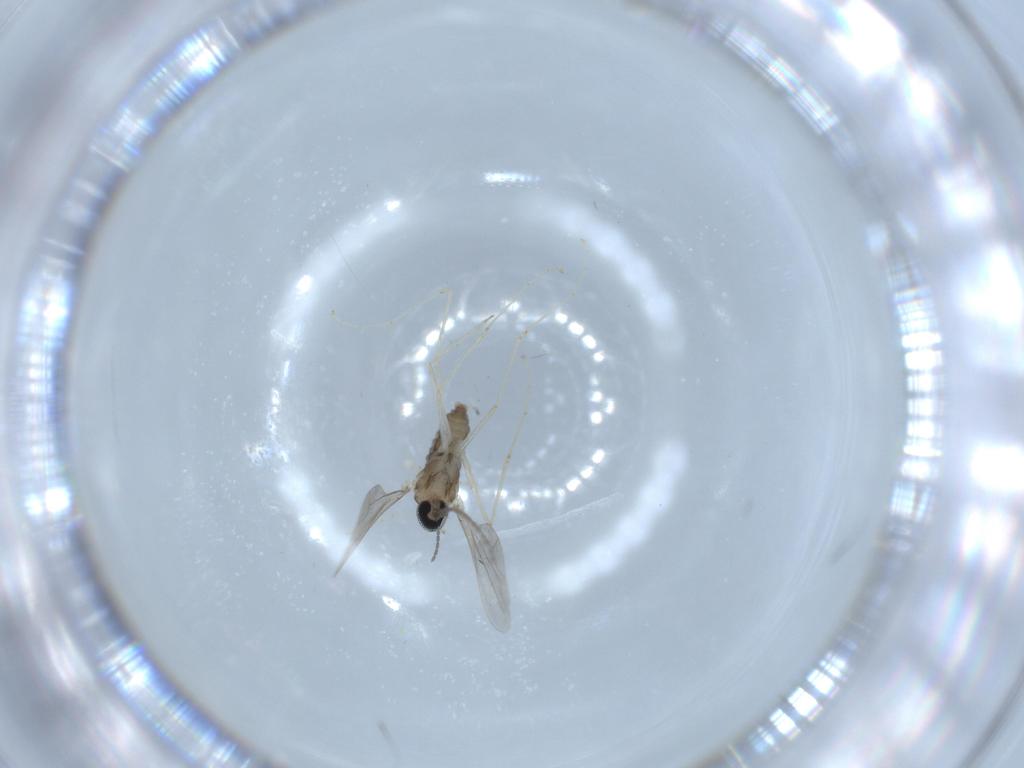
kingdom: Animalia
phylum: Arthropoda
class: Insecta
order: Diptera
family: Cecidomyiidae
